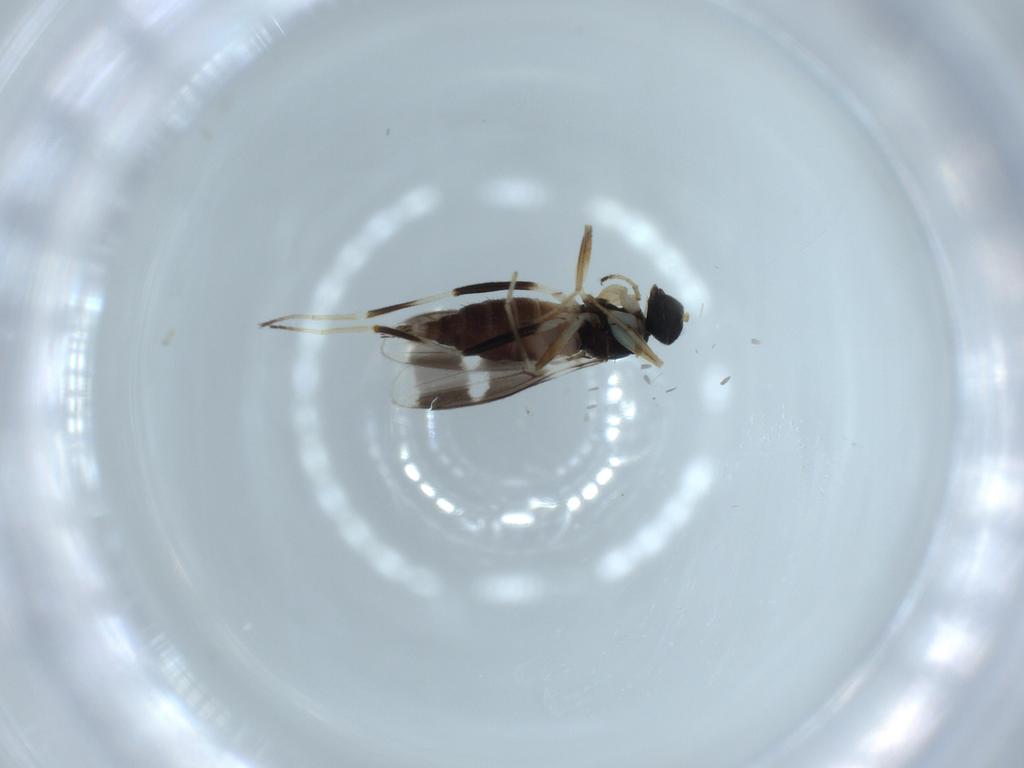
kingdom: Animalia
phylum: Arthropoda
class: Insecta
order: Diptera
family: Hybotidae
